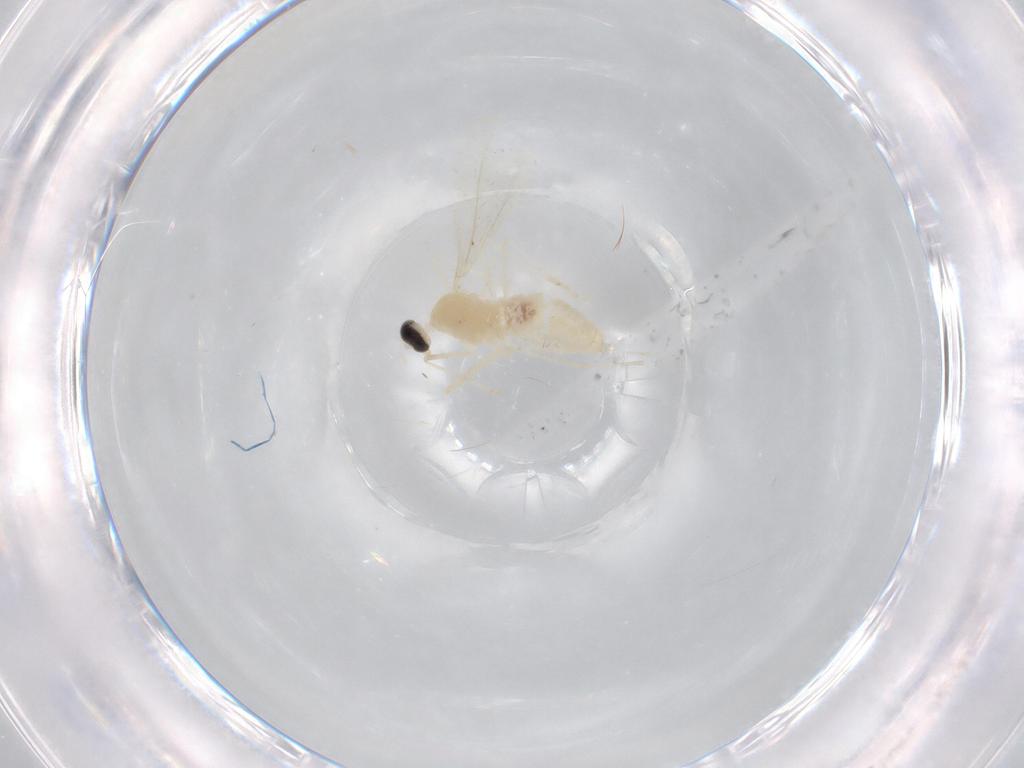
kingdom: Animalia
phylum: Arthropoda
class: Insecta
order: Diptera
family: Cecidomyiidae
